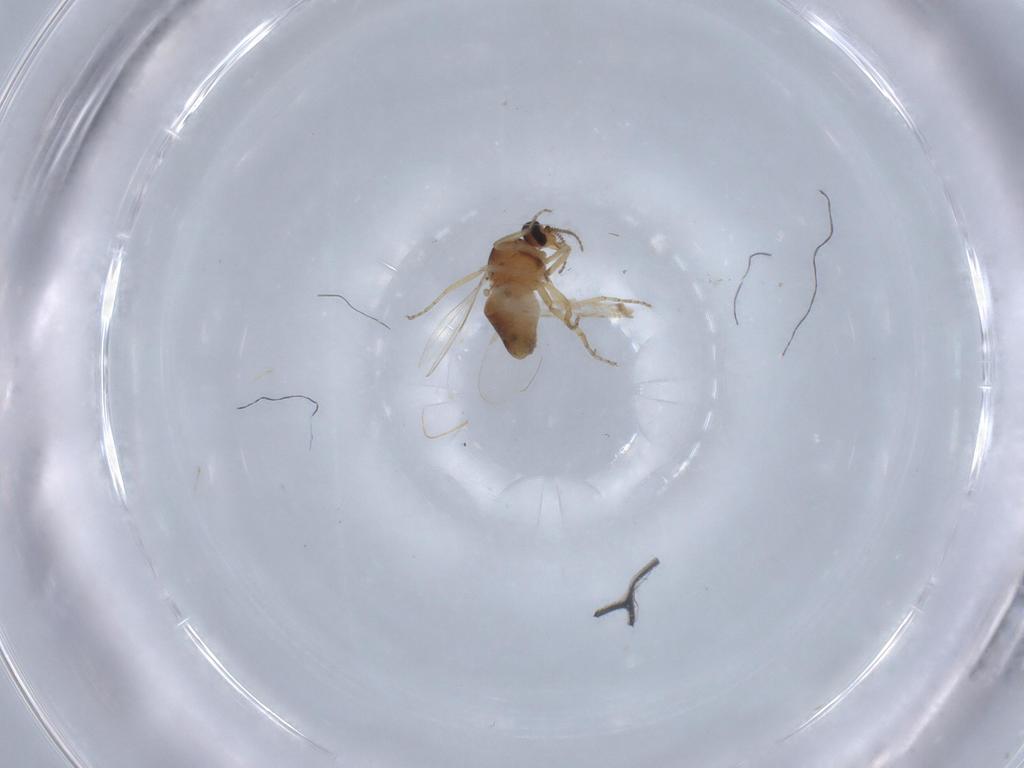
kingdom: Animalia
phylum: Arthropoda
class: Insecta
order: Diptera
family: Ceratopogonidae
